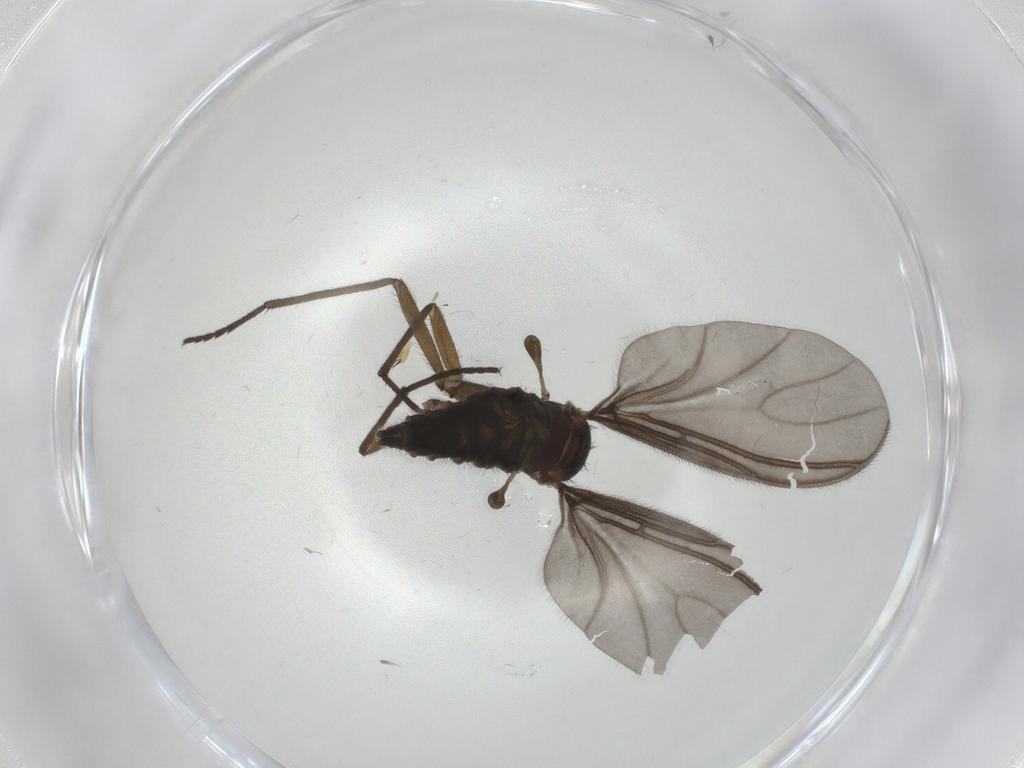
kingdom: Animalia
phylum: Arthropoda
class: Insecta
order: Diptera
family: Sciaridae
